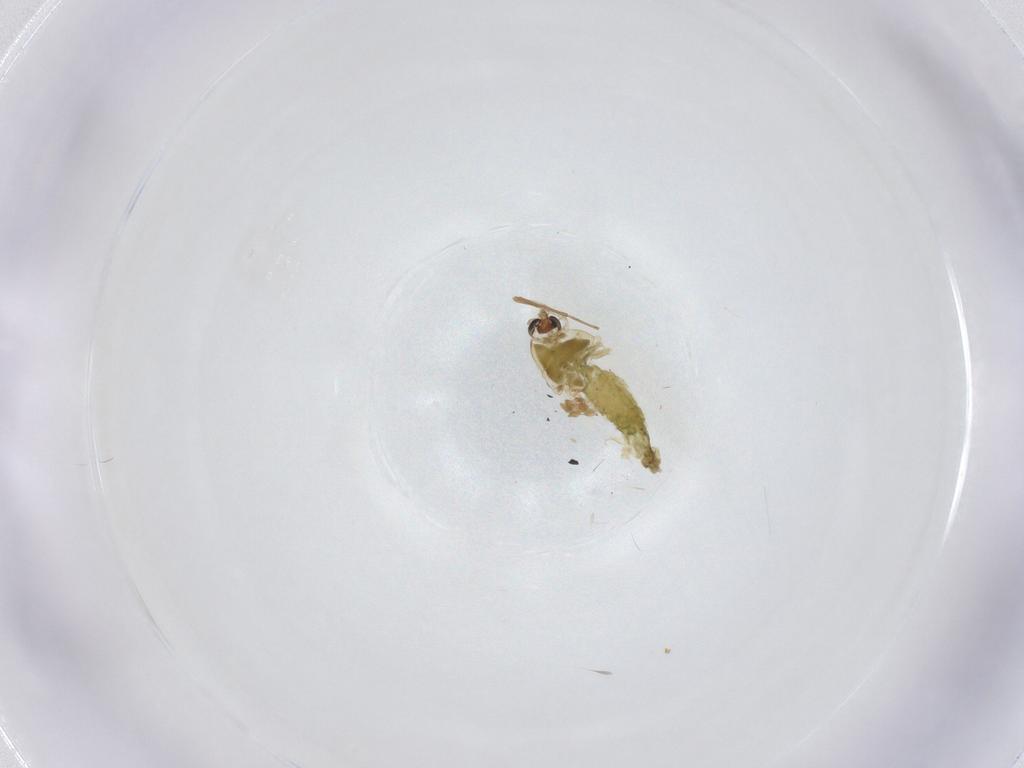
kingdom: Animalia
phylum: Arthropoda
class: Insecta
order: Diptera
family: Chironomidae
